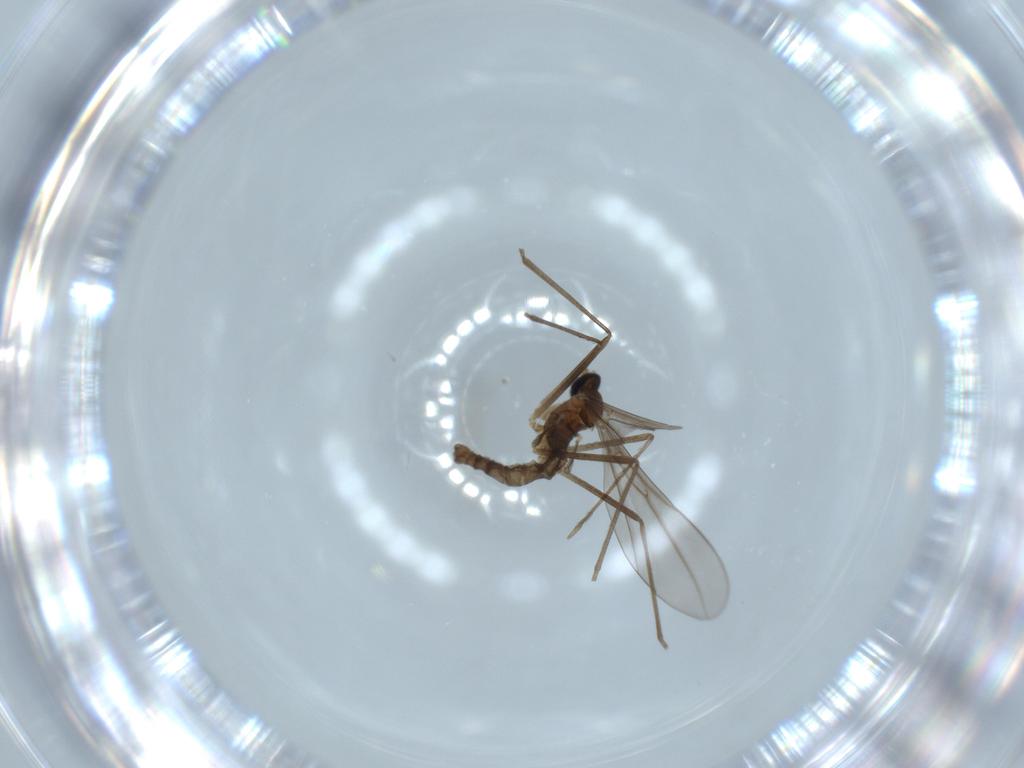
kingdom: Animalia
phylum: Arthropoda
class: Insecta
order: Diptera
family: Cecidomyiidae
